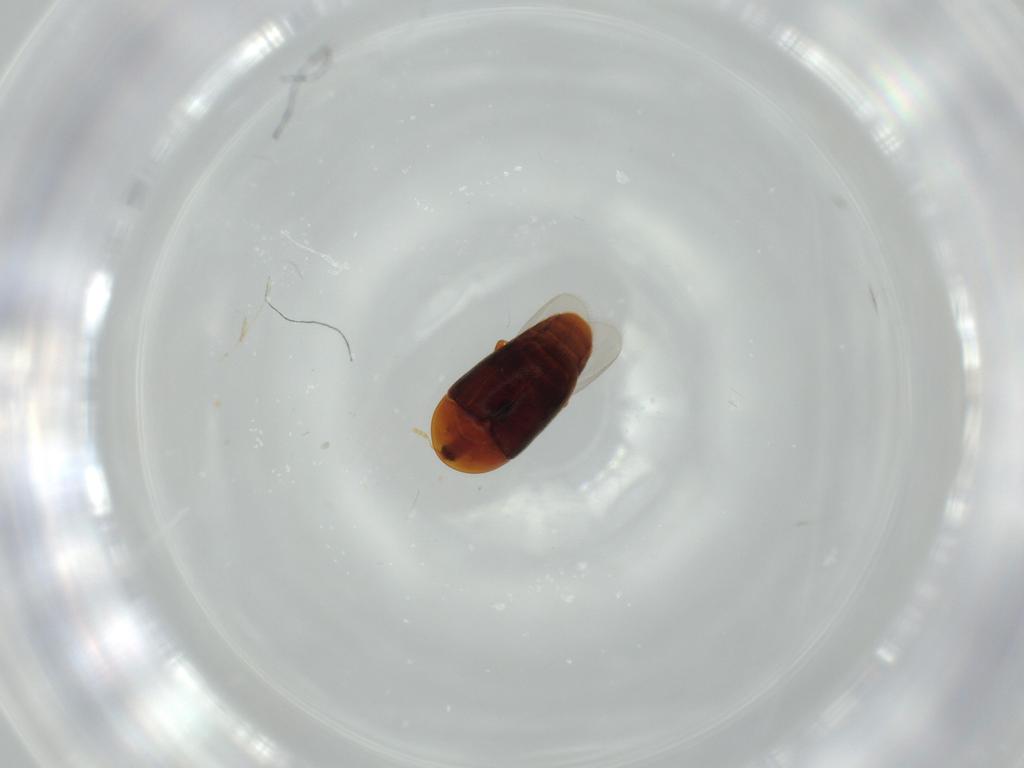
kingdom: Animalia
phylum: Arthropoda
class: Insecta
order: Coleoptera
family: Corylophidae
